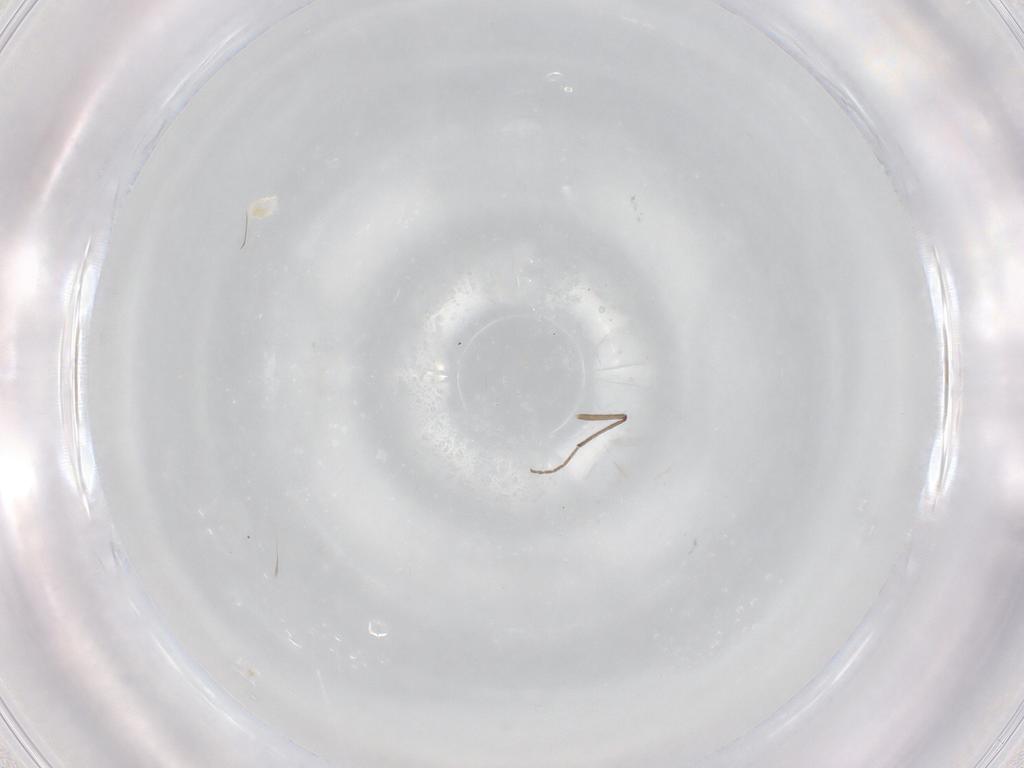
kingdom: Animalia
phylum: Arthropoda
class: Insecta
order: Hymenoptera
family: Mymaridae
